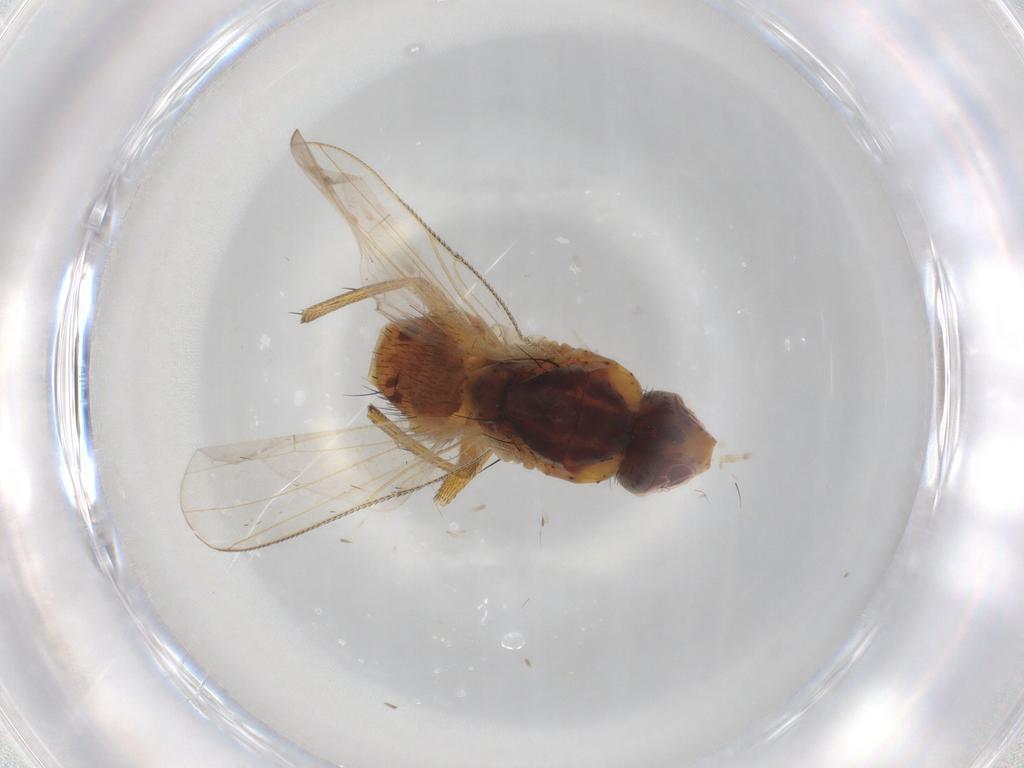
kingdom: Animalia
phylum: Arthropoda
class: Insecta
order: Diptera
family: Muscidae
